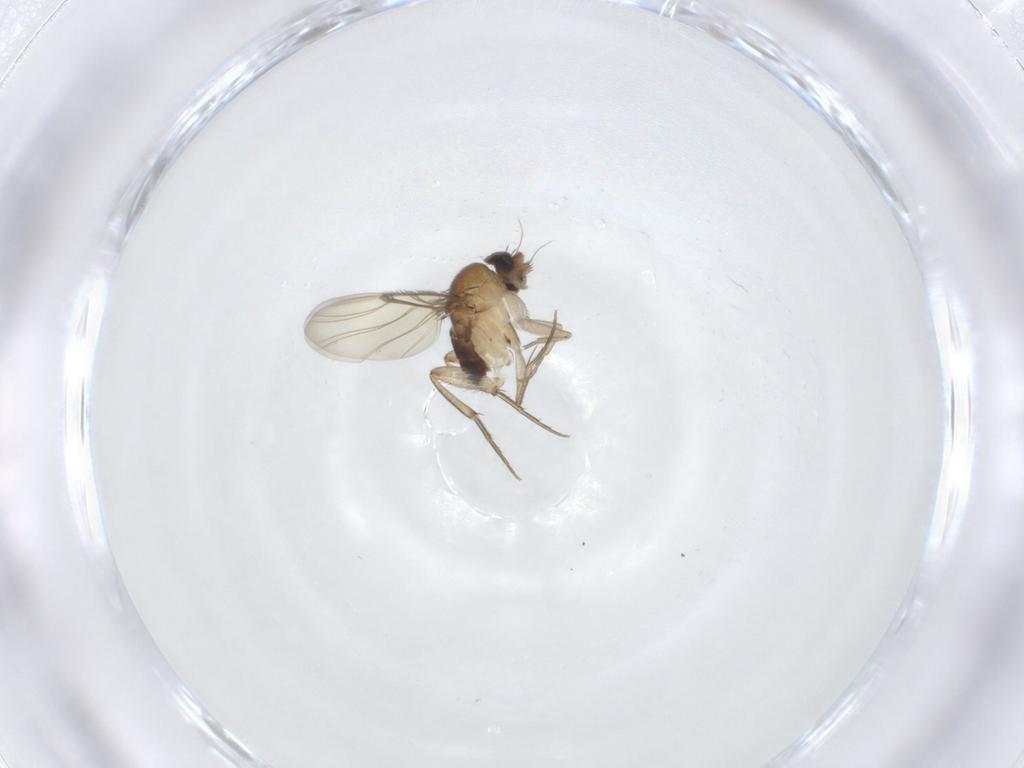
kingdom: Animalia
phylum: Arthropoda
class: Insecta
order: Diptera
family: Phoridae
